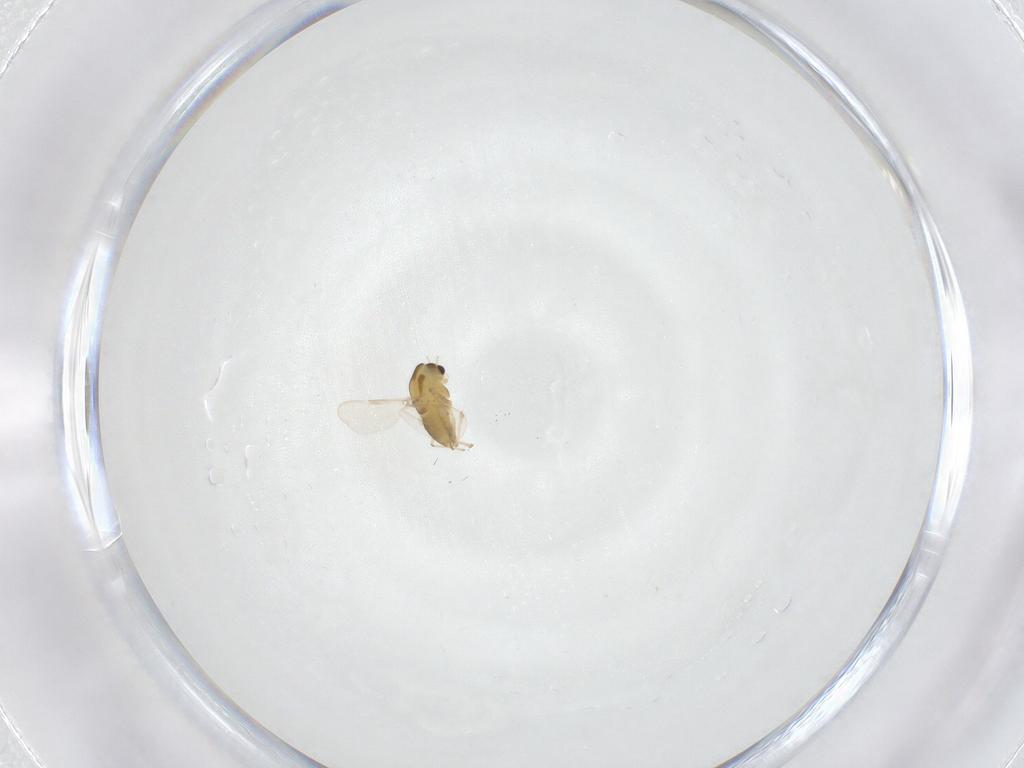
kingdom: Animalia
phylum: Arthropoda
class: Insecta
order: Diptera
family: Chironomidae
